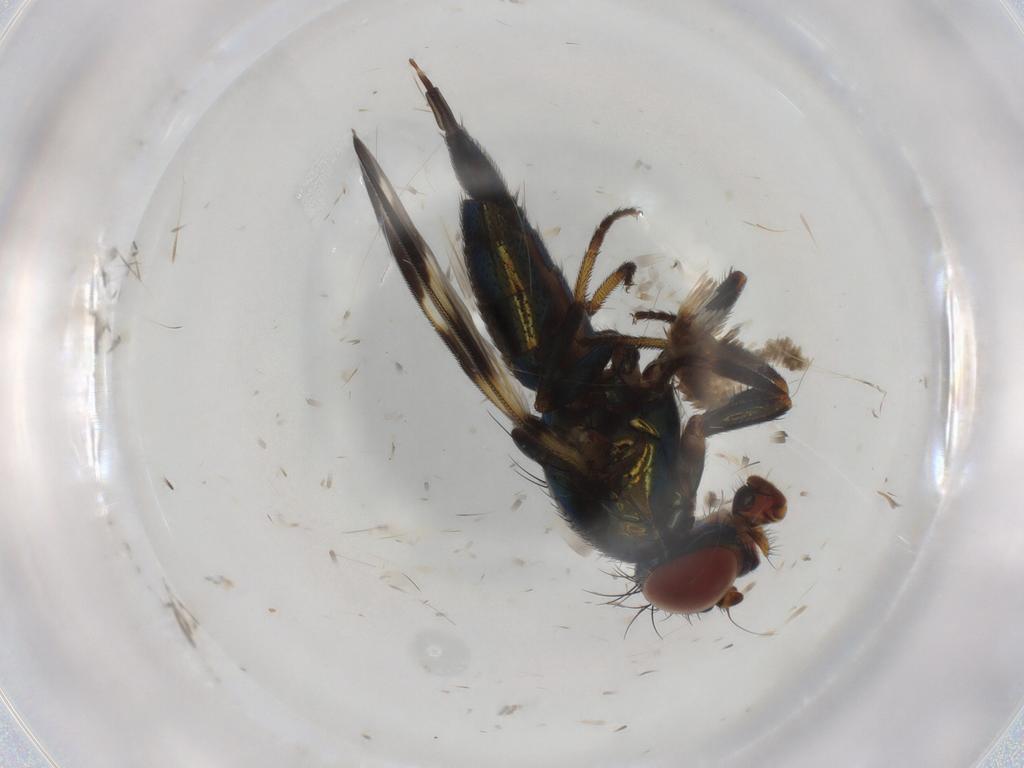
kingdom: Animalia
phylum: Arthropoda
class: Insecta
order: Diptera
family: Ulidiidae
